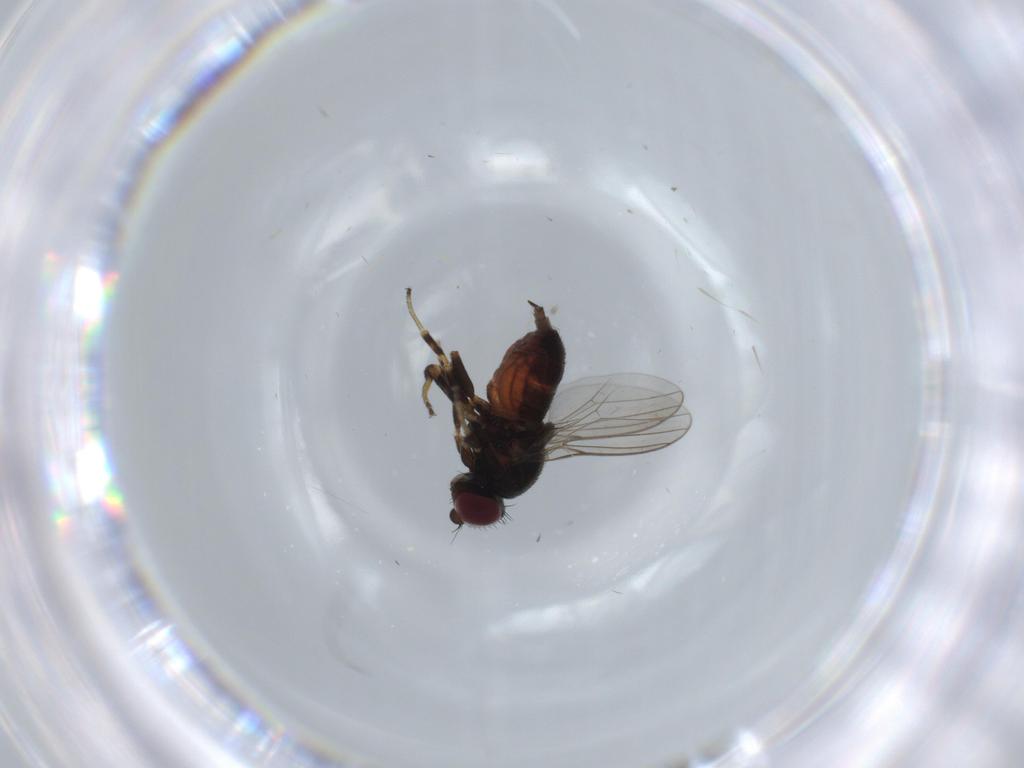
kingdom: Animalia
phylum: Arthropoda
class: Insecta
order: Diptera
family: Chloropidae
